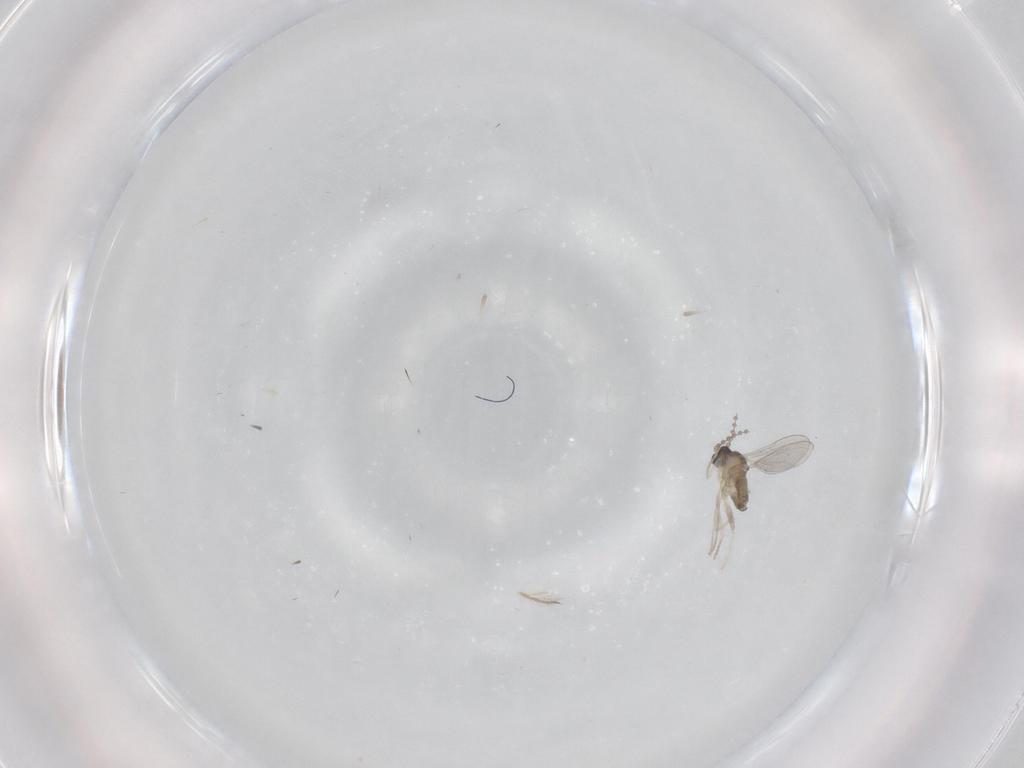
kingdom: Animalia
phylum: Arthropoda
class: Insecta
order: Diptera
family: Cecidomyiidae
